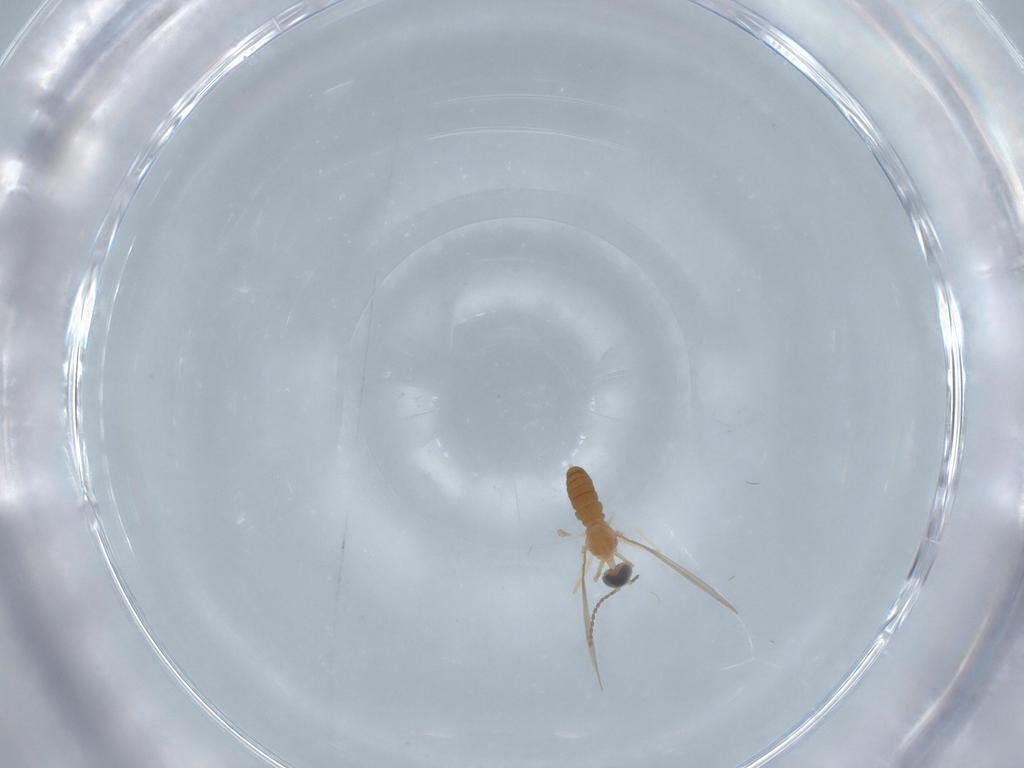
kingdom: Animalia
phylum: Arthropoda
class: Insecta
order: Diptera
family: Cecidomyiidae
